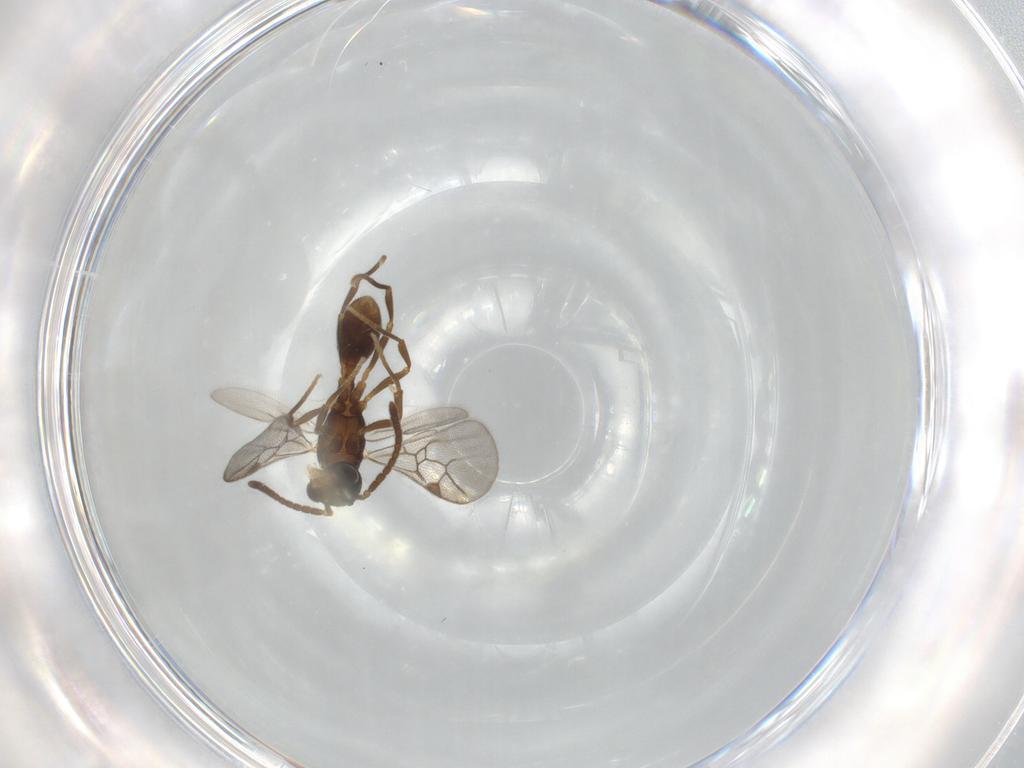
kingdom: Animalia
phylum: Arthropoda
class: Insecta
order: Hymenoptera
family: Formicidae
